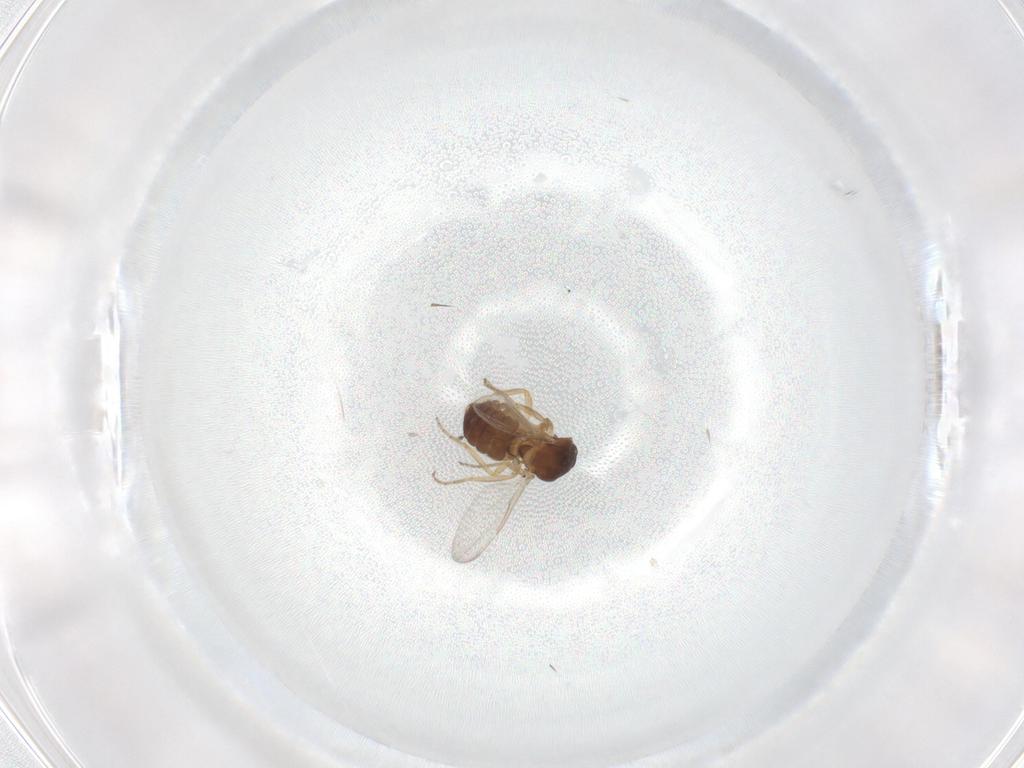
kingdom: Animalia
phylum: Arthropoda
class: Insecta
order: Diptera
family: Ceratopogonidae
